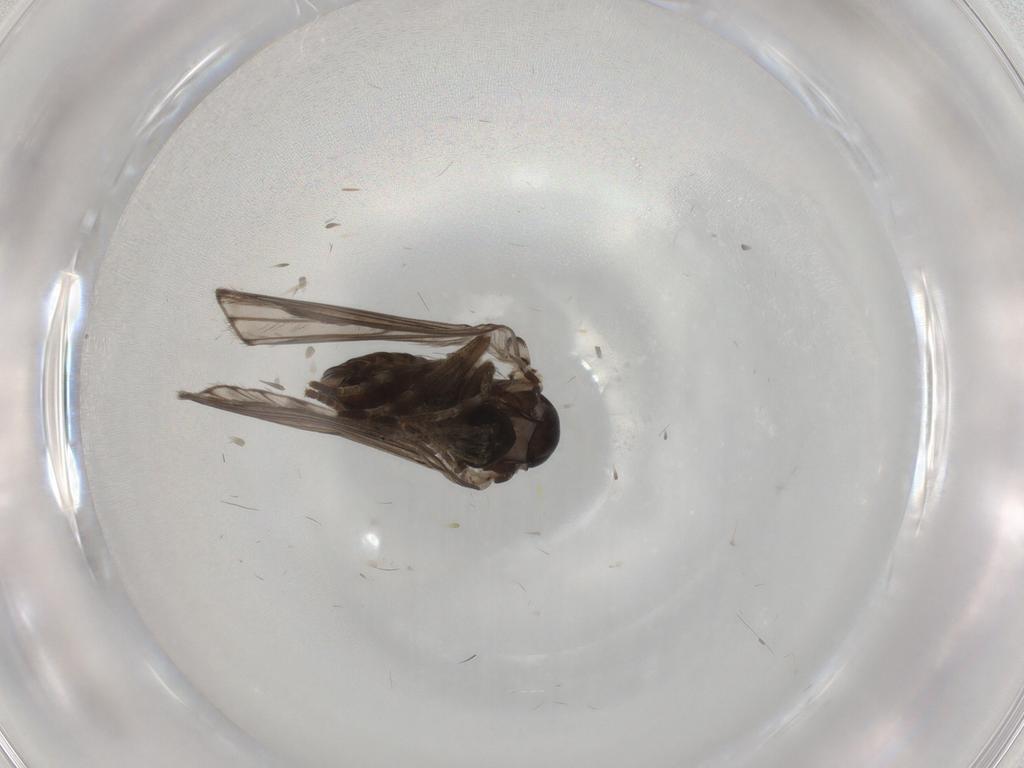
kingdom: Animalia
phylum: Arthropoda
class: Insecta
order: Diptera
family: Psychodidae
